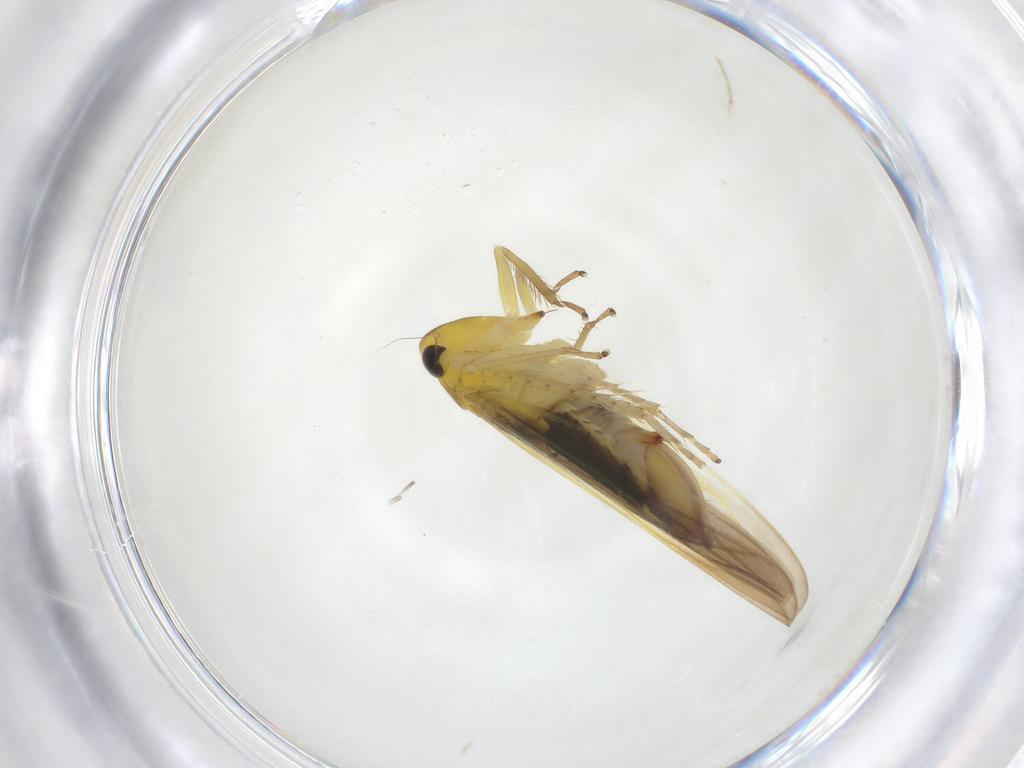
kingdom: Animalia
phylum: Arthropoda
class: Insecta
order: Hemiptera
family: Cicadellidae
